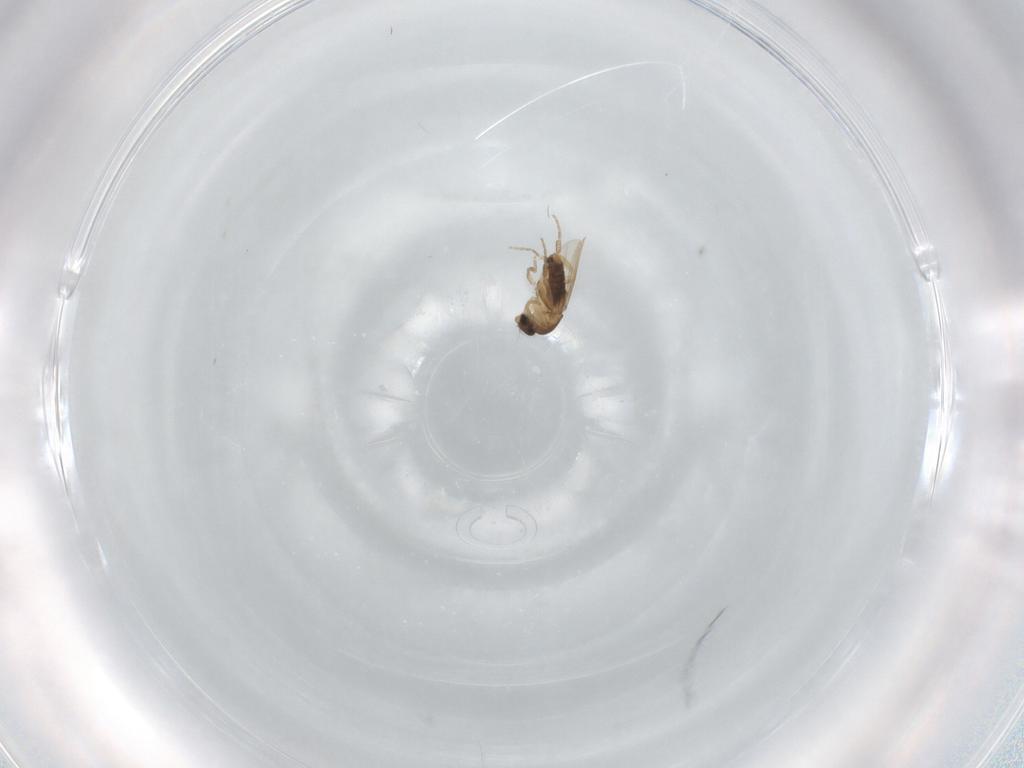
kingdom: Animalia
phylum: Arthropoda
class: Insecta
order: Diptera
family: Phoridae
